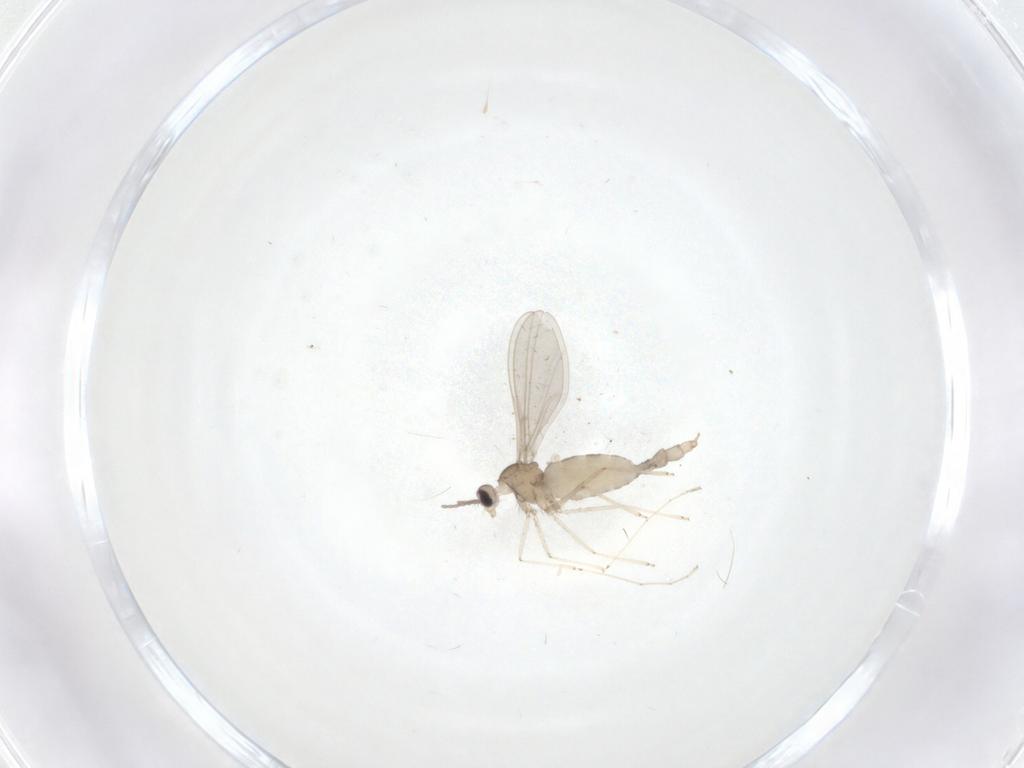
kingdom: Animalia
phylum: Arthropoda
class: Insecta
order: Diptera
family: Cecidomyiidae
